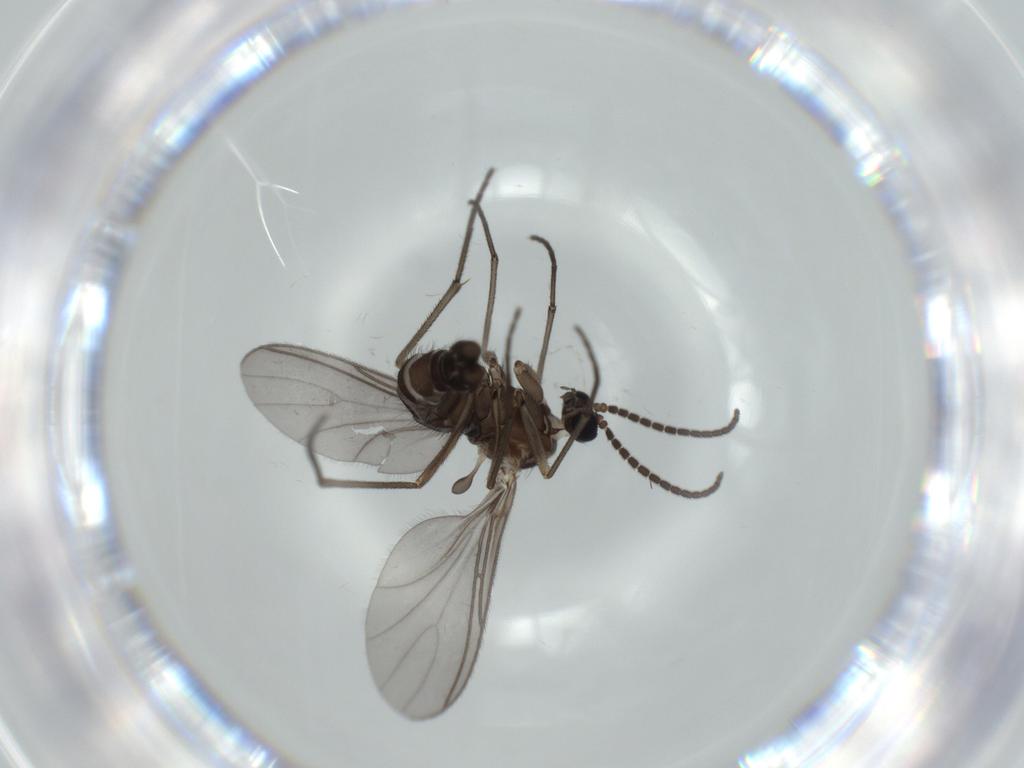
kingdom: Animalia
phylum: Arthropoda
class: Insecta
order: Diptera
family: Sciaridae
